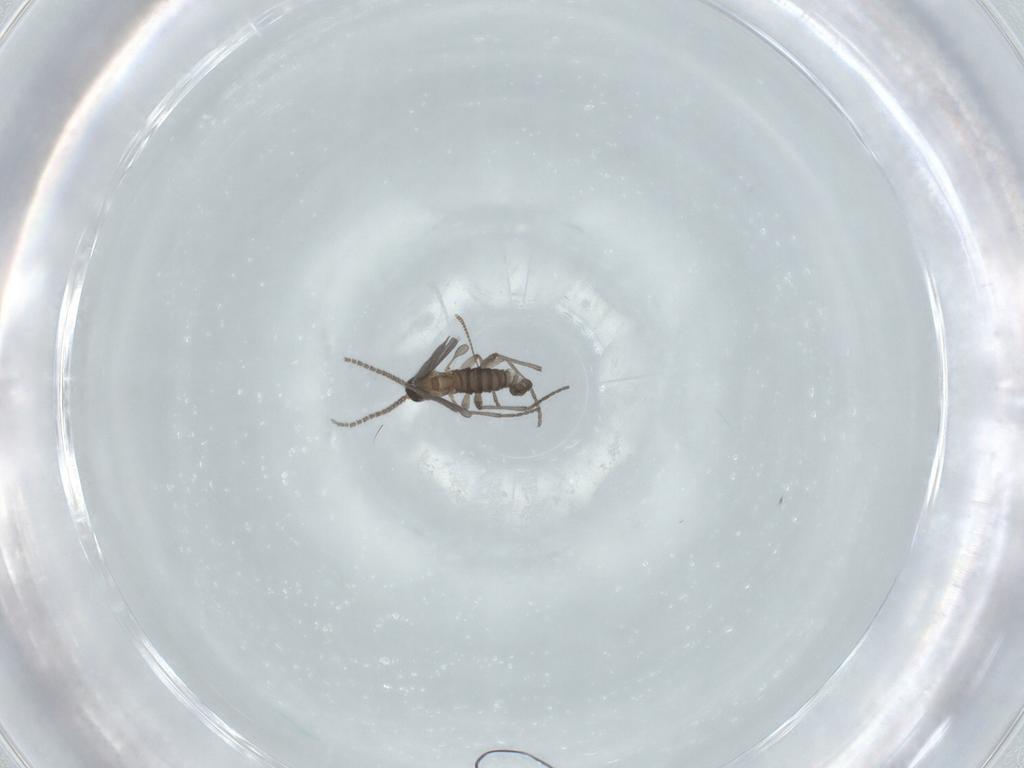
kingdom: Animalia
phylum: Arthropoda
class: Insecta
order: Diptera
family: Sciaridae
